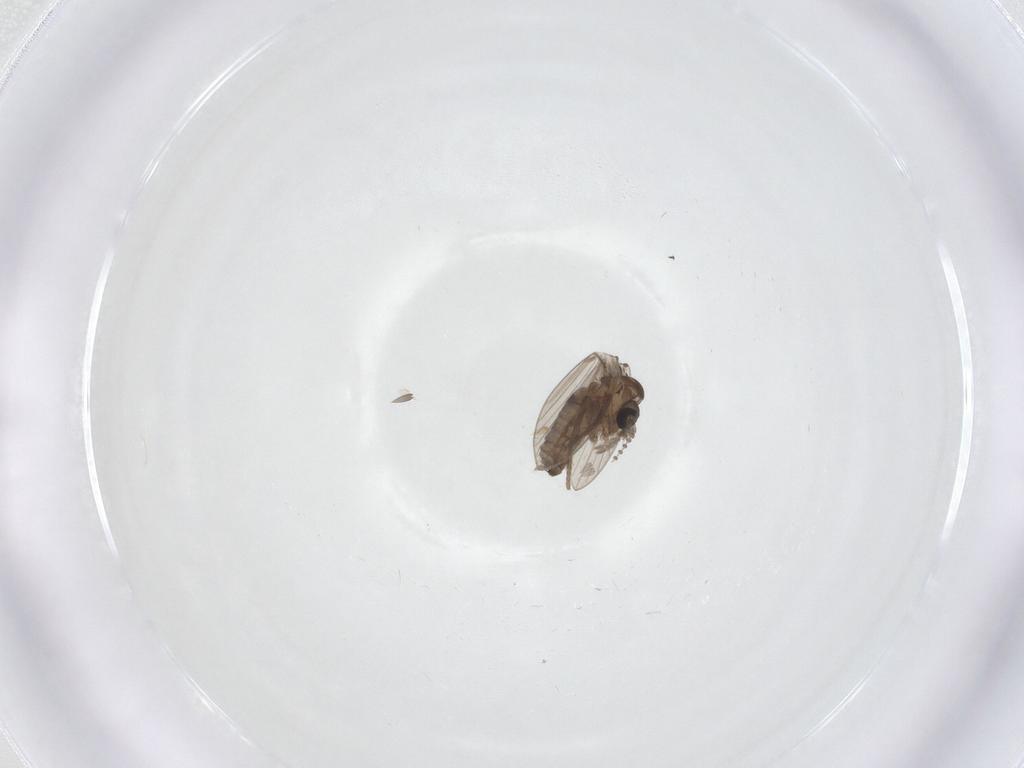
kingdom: Animalia
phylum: Arthropoda
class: Insecta
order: Diptera
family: Psychodidae
